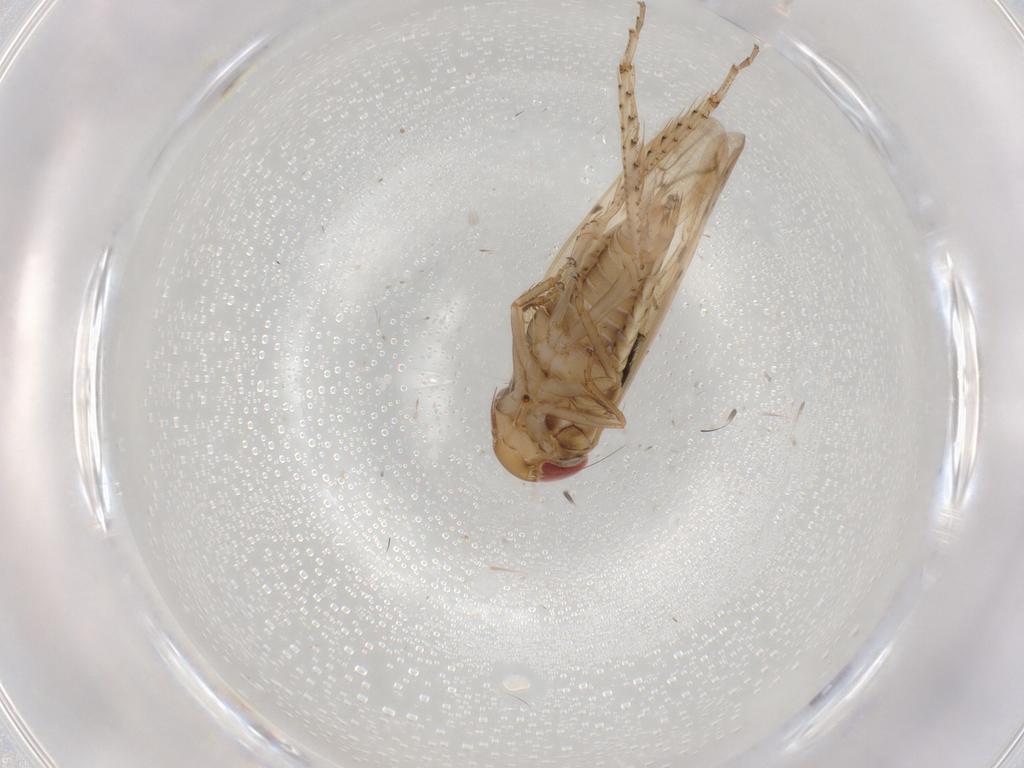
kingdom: Animalia
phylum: Arthropoda
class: Insecta
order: Hemiptera
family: Cicadellidae
